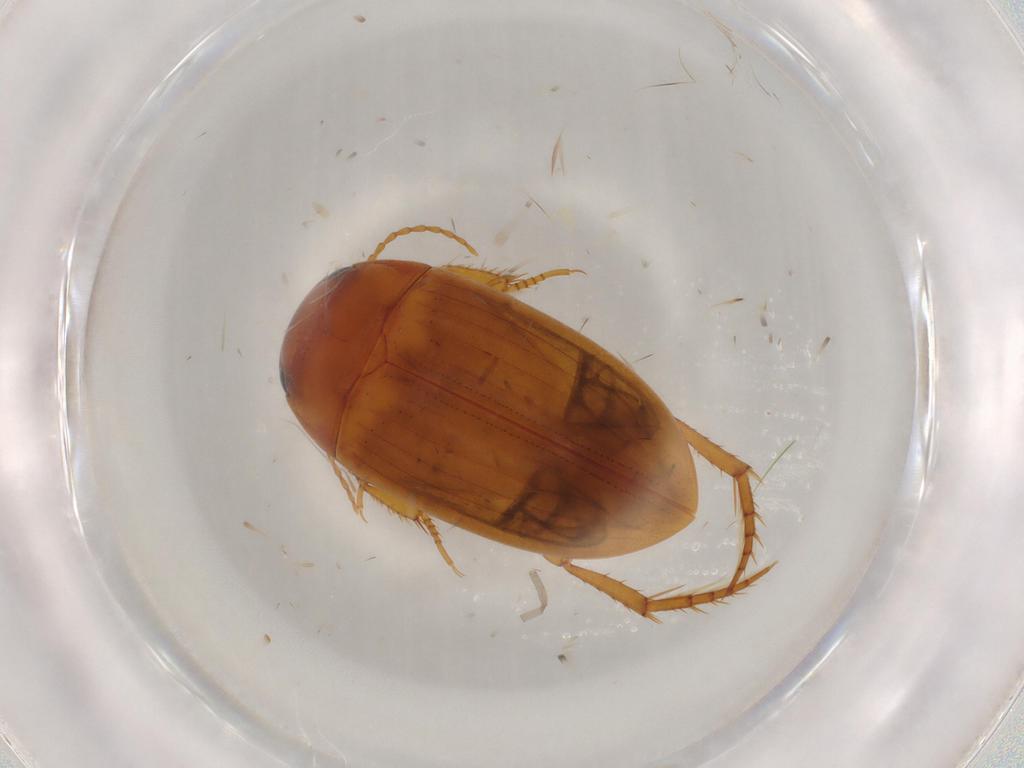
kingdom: Animalia
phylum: Arthropoda
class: Insecta
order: Coleoptera
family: Dytiscidae
